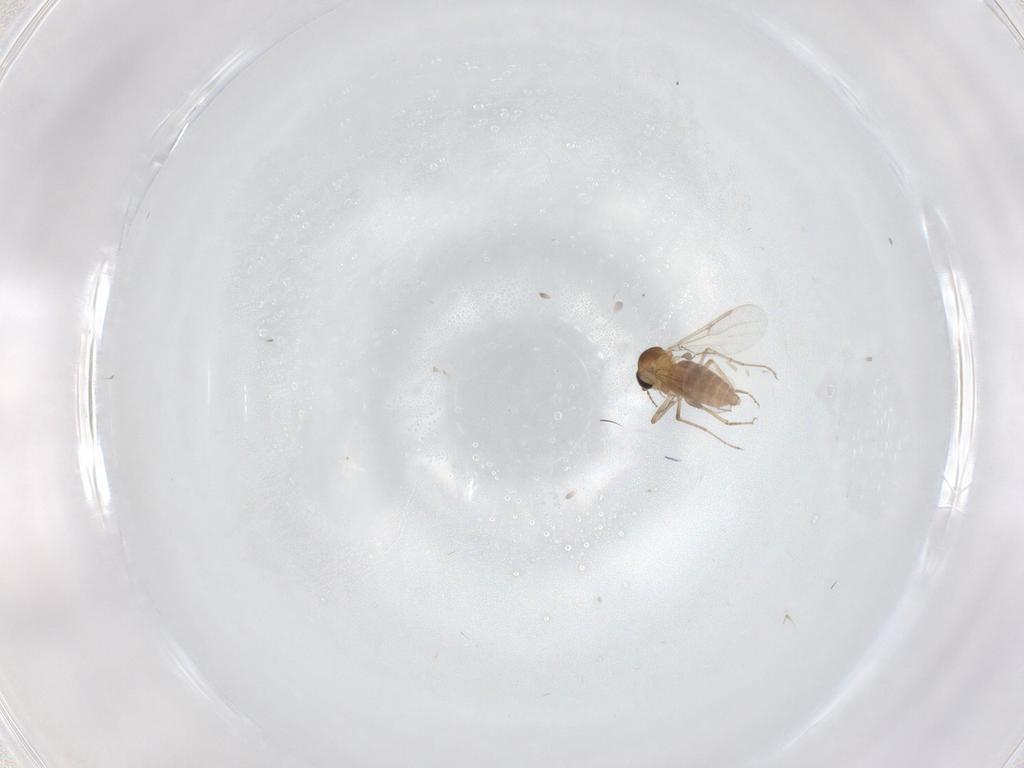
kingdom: Animalia
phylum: Arthropoda
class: Insecta
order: Diptera
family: Ceratopogonidae
